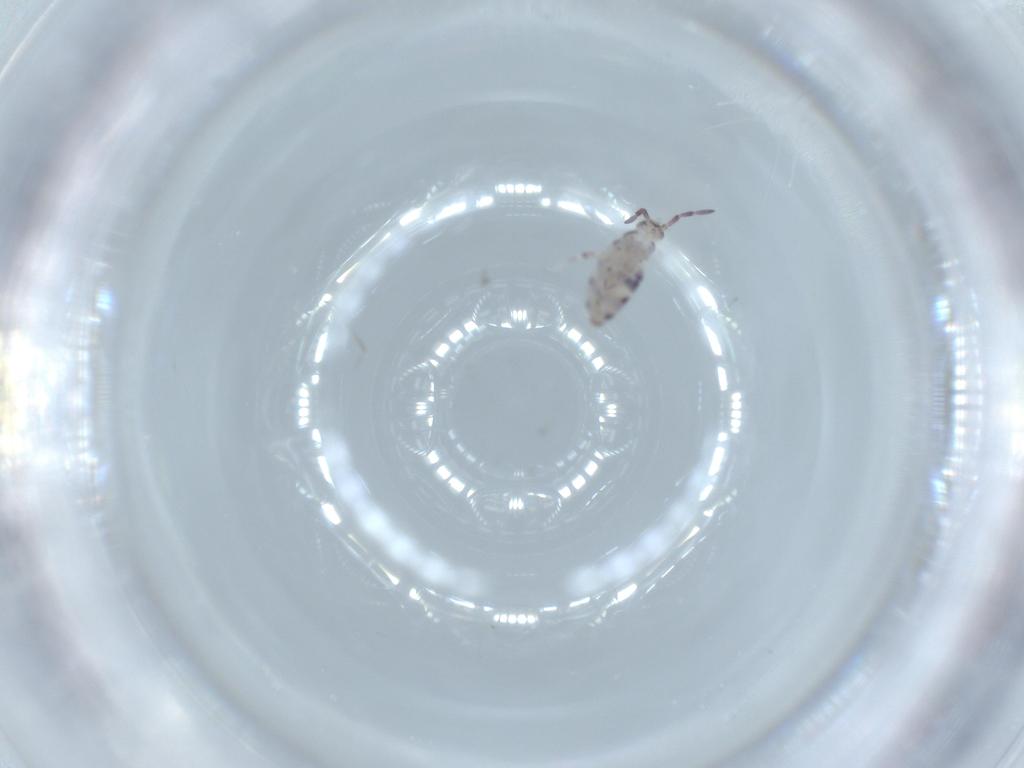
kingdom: Animalia
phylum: Arthropoda
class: Collembola
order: Entomobryomorpha
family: Entomobryidae
